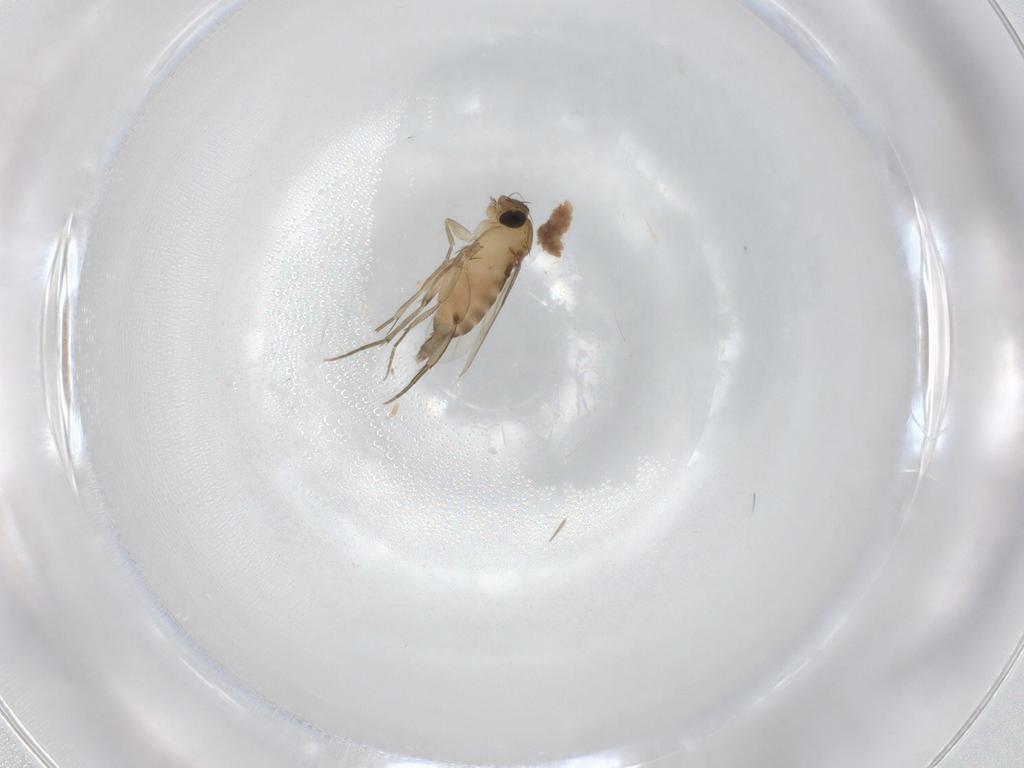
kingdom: Animalia
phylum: Arthropoda
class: Insecta
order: Diptera
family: Phoridae
